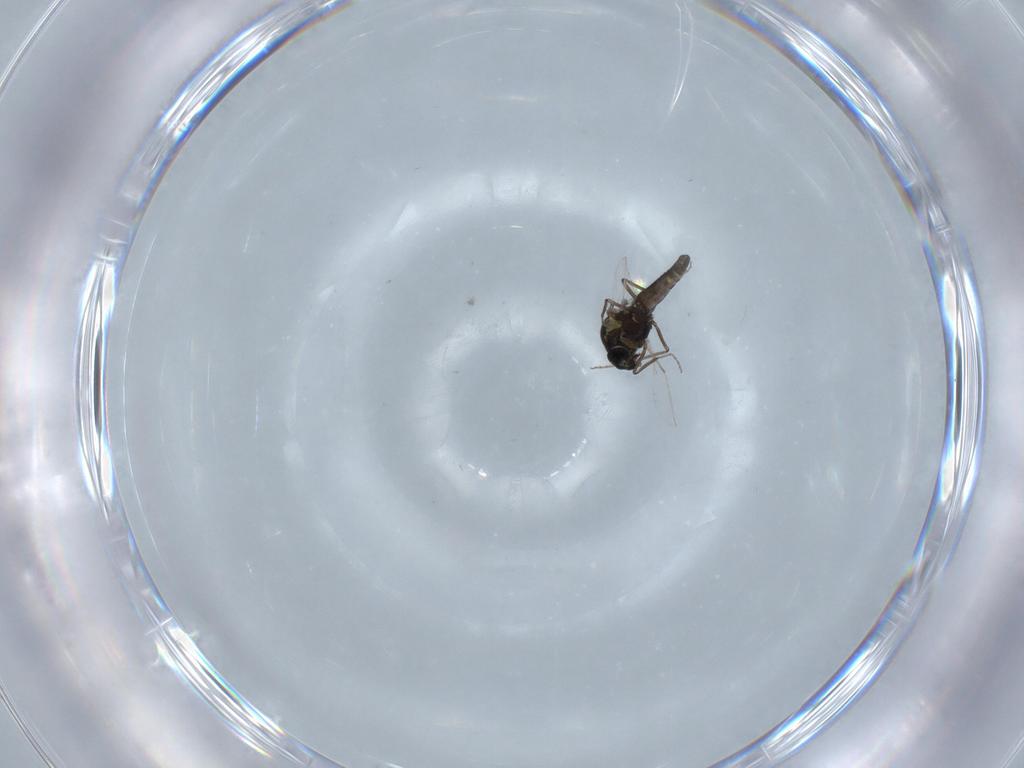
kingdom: Animalia
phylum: Arthropoda
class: Insecta
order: Diptera
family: Ceratopogonidae
